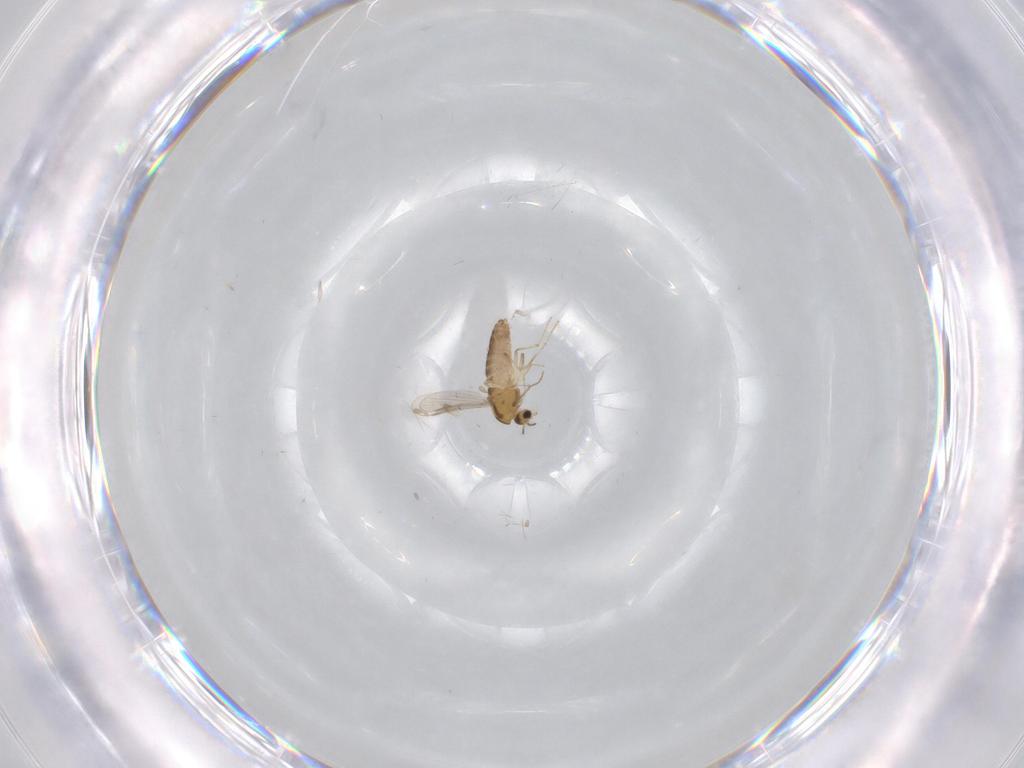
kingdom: Animalia
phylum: Arthropoda
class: Insecta
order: Diptera
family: Chironomidae
